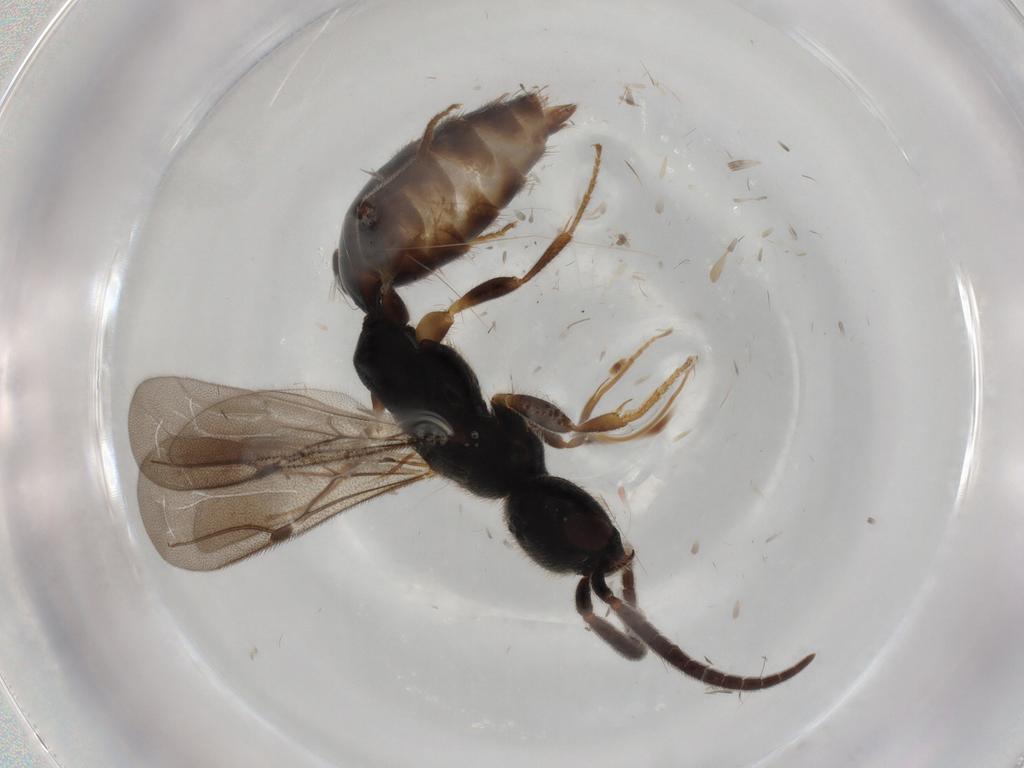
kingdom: Animalia
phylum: Arthropoda
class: Insecta
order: Hymenoptera
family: Bethylidae
